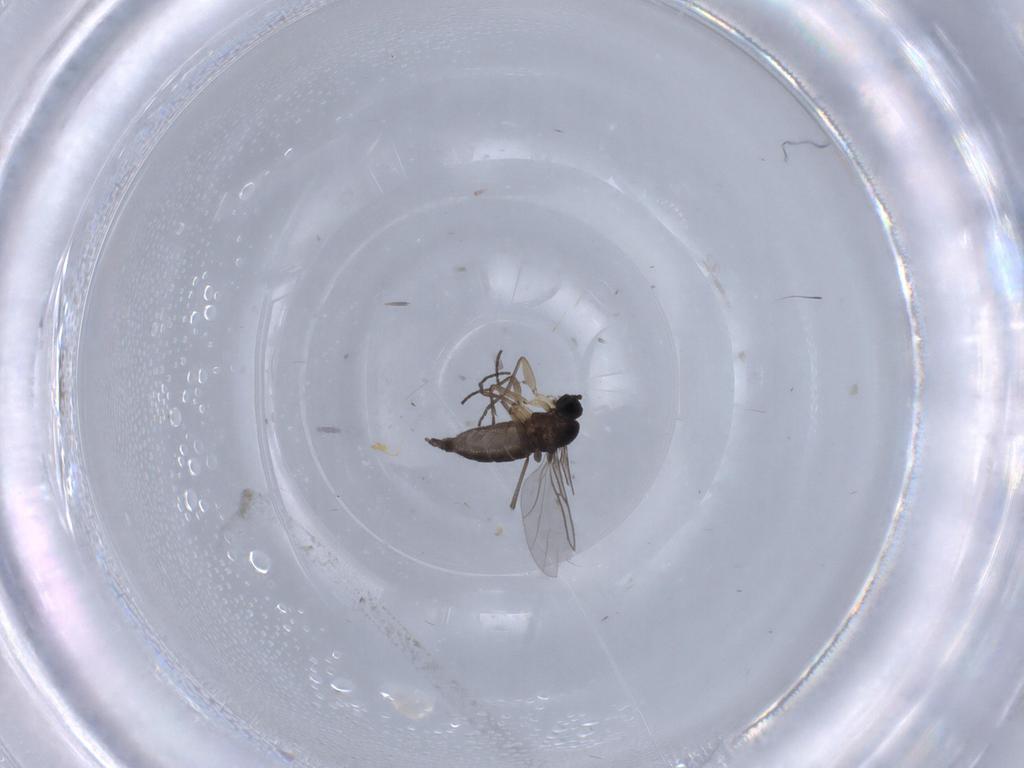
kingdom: Animalia
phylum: Arthropoda
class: Insecta
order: Diptera
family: Sciaridae
